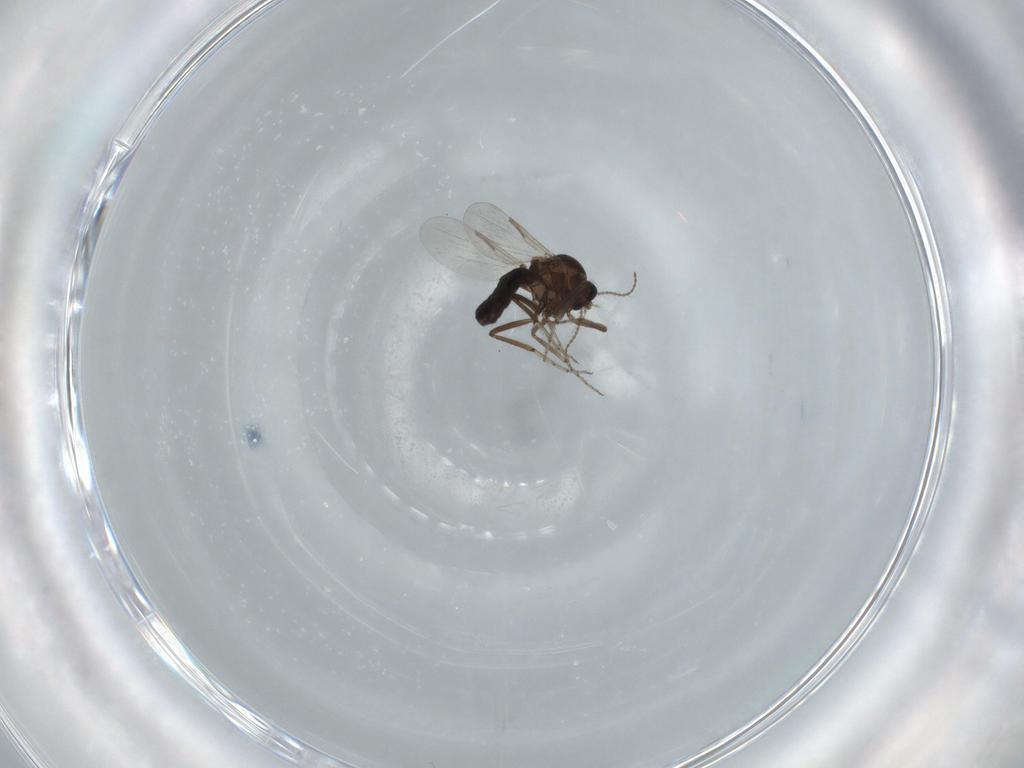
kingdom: Animalia
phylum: Arthropoda
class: Insecta
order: Diptera
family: Ceratopogonidae
